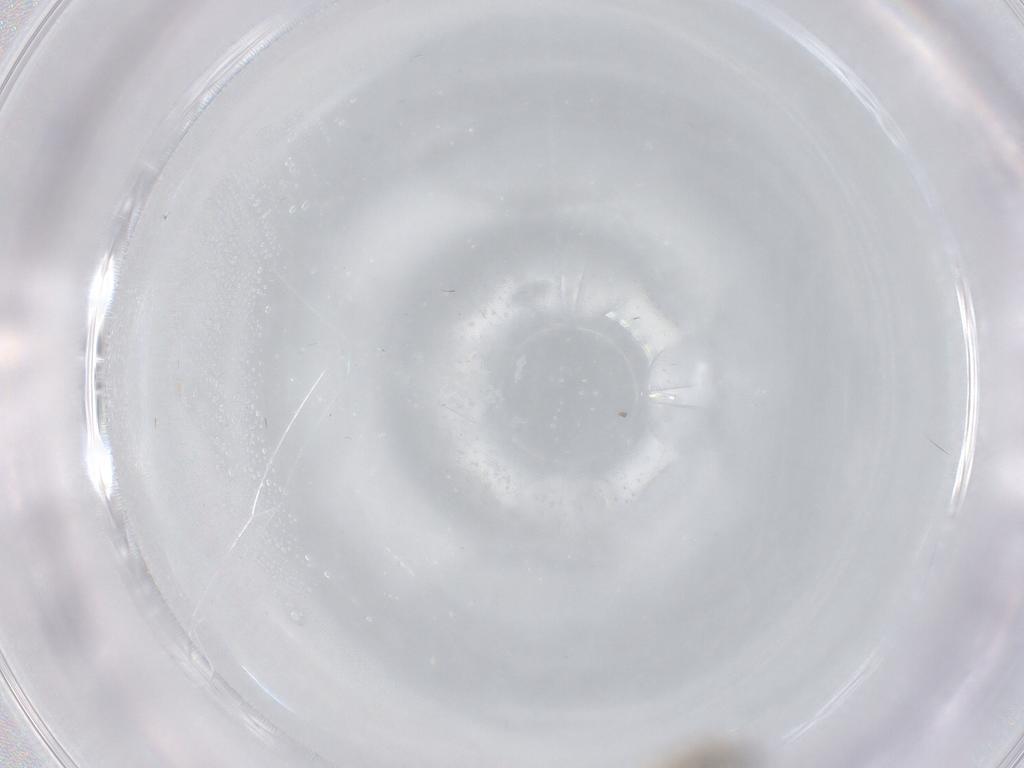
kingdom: Animalia
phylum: Arthropoda
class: Insecta
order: Diptera
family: Cecidomyiidae
